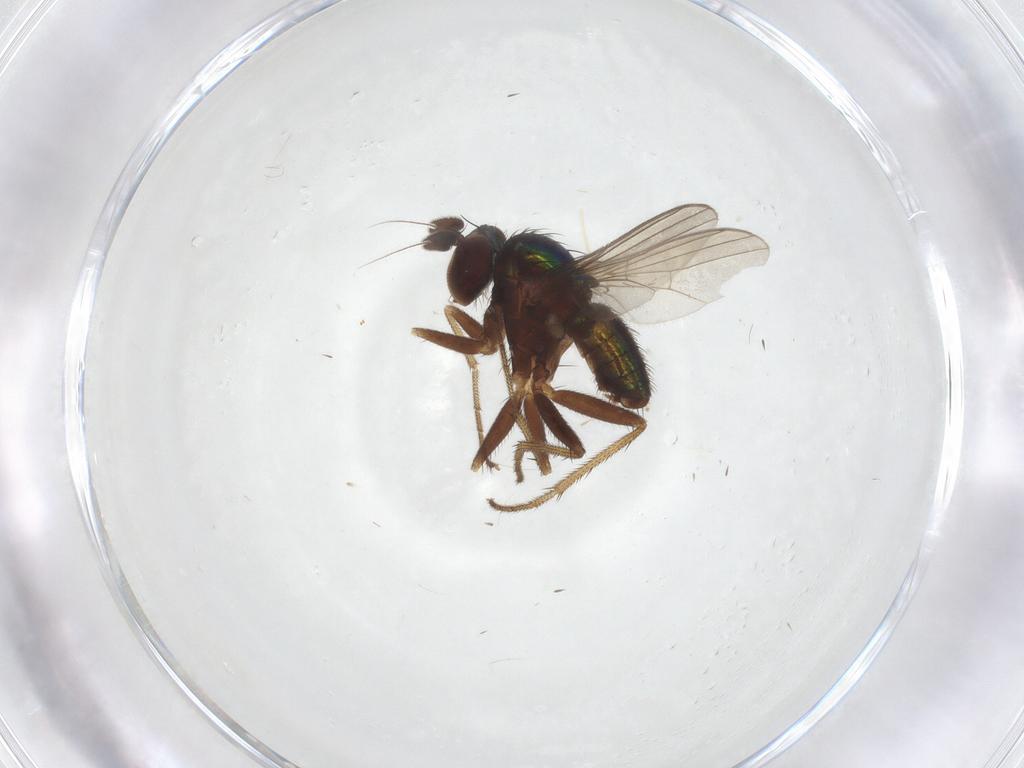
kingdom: Animalia
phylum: Arthropoda
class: Insecta
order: Diptera
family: Dolichopodidae
